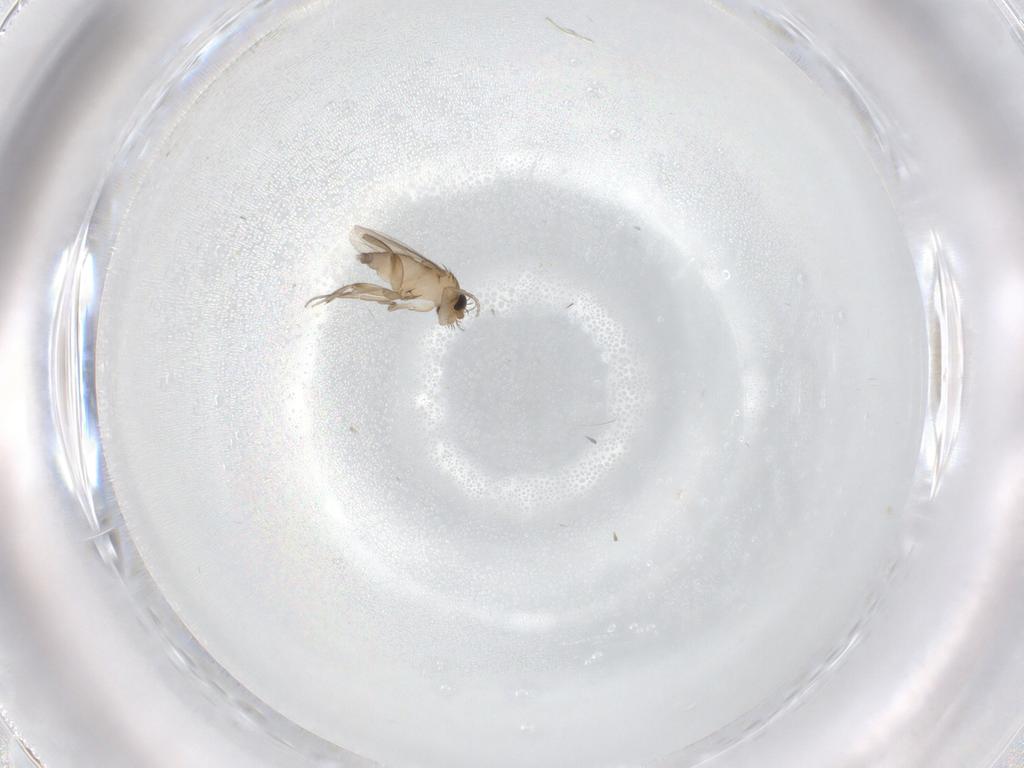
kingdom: Animalia
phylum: Arthropoda
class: Insecta
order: Diptera
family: Phoridae
